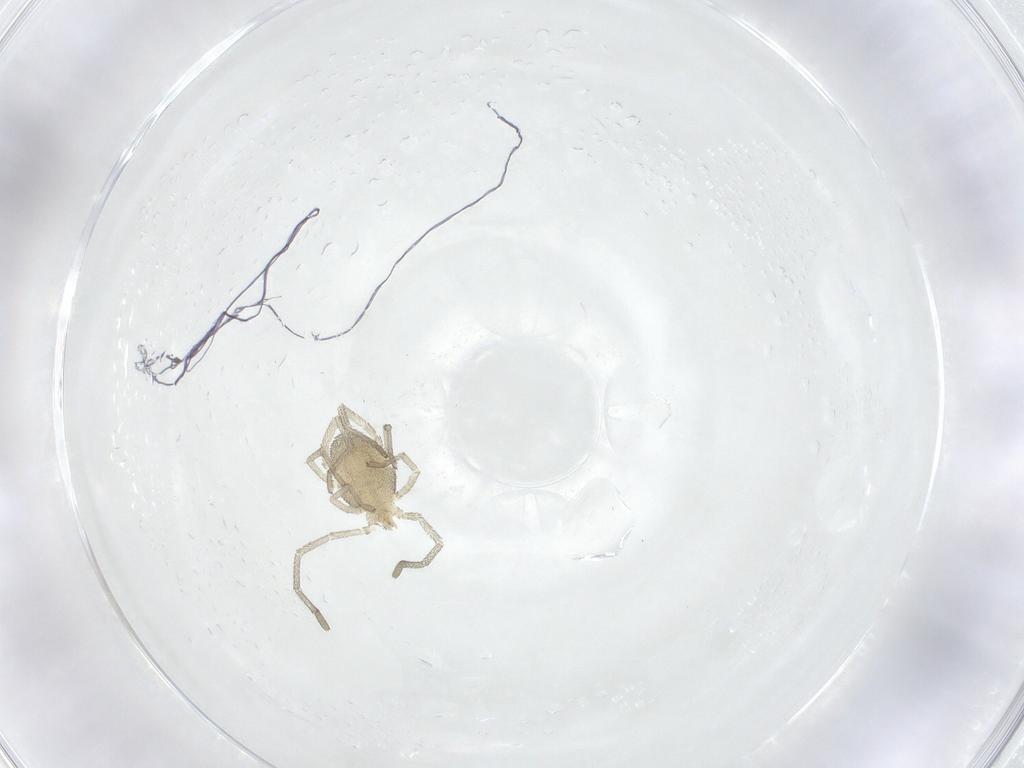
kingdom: Animalia
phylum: Arthropoda
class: Arachnida
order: Trombidiformes
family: Smarididae
